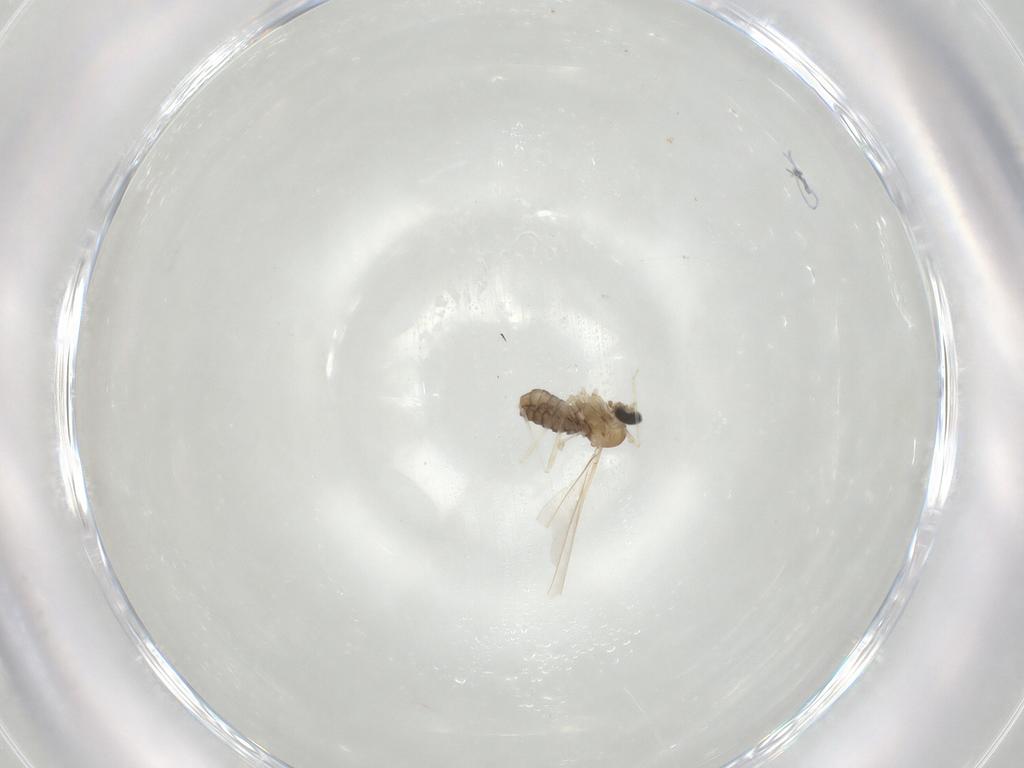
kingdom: Animalia
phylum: Arthropoda
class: Insecta
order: Diptera
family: Cecidomyiidae
